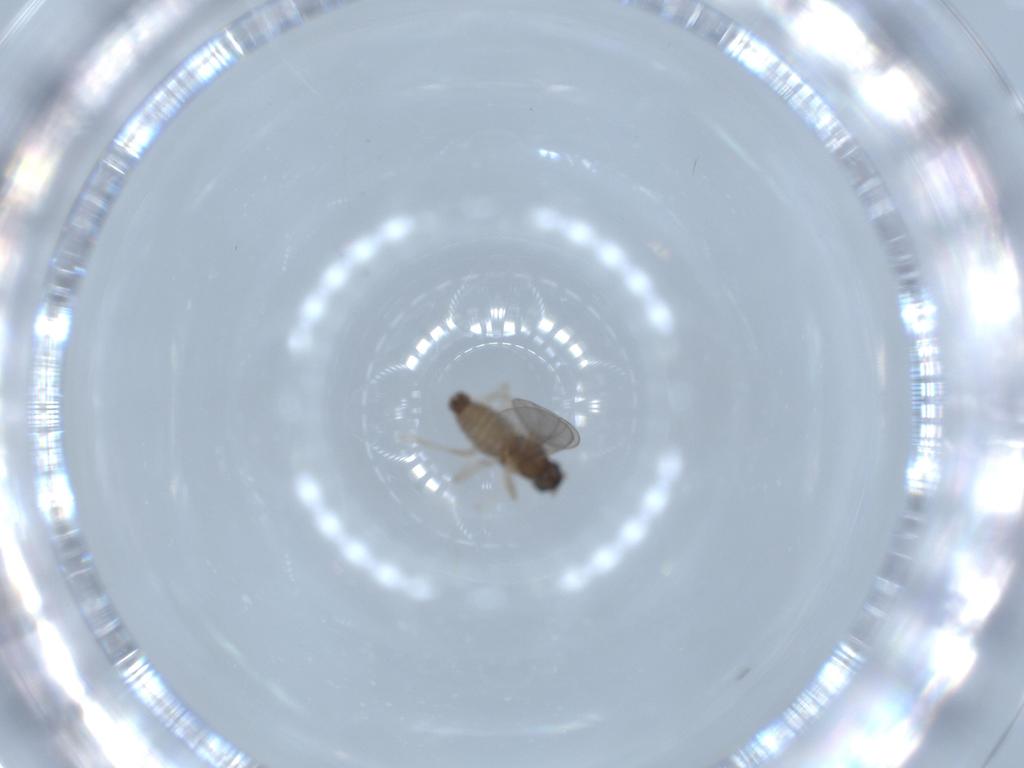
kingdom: Animalia
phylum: Arthropoda
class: Insecta
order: Diptera
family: Cecidomyiidae
